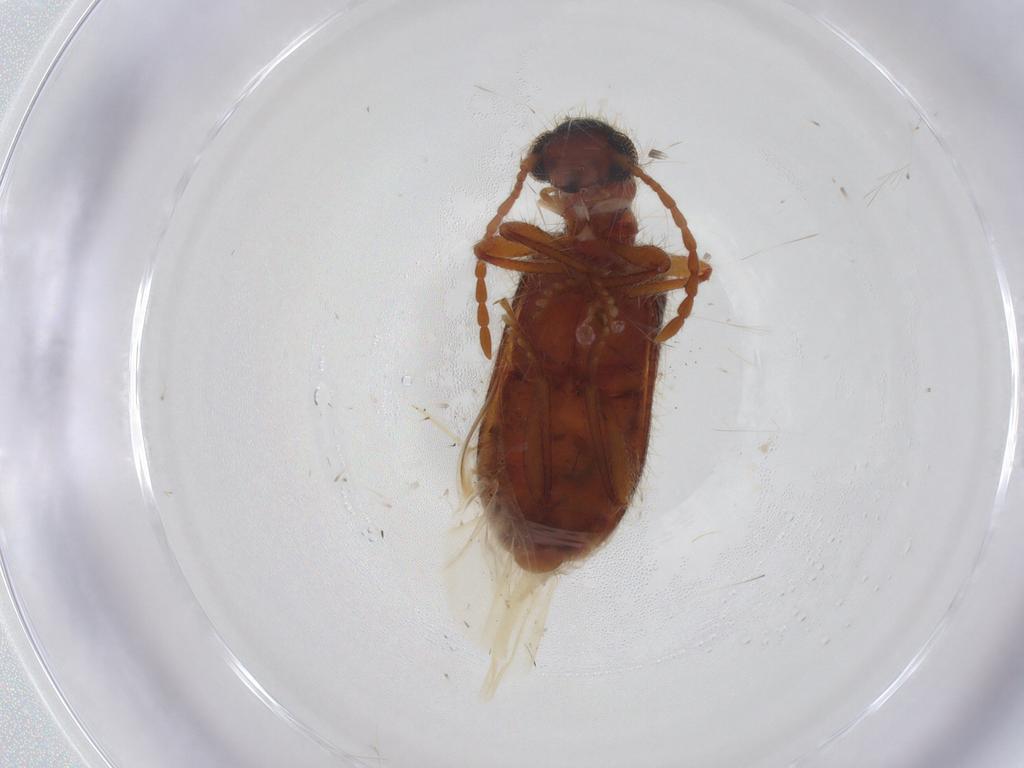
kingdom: Animalia
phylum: Arthropoda
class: Insecta
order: Coleoptera
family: Cleridae
